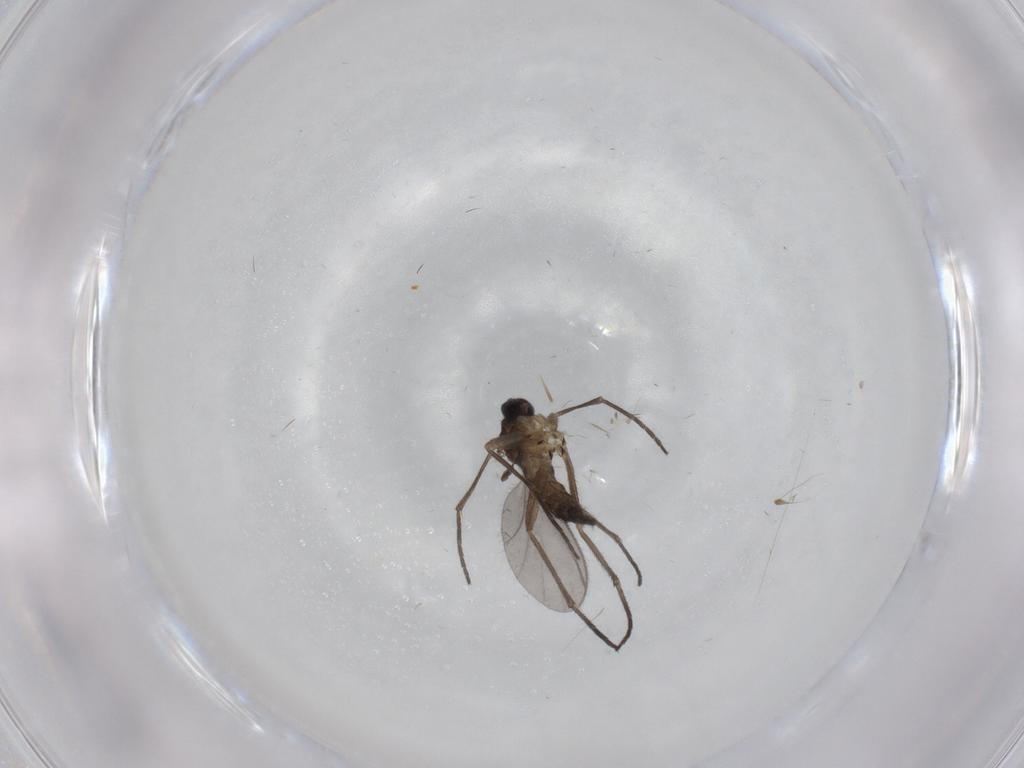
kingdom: Animalia
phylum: Arthropoda
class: Insecta
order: Diptera
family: Sciaridae
